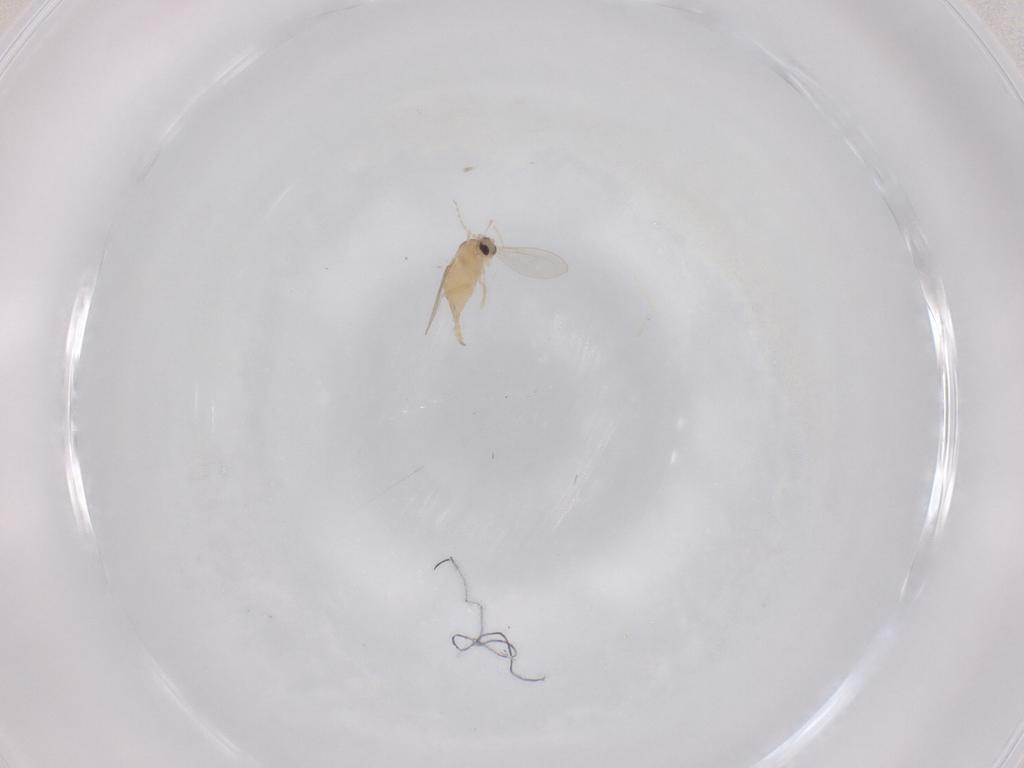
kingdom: Animalia
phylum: Arthropoda
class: Insecta
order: Diptera
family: Cecidomyiidae
